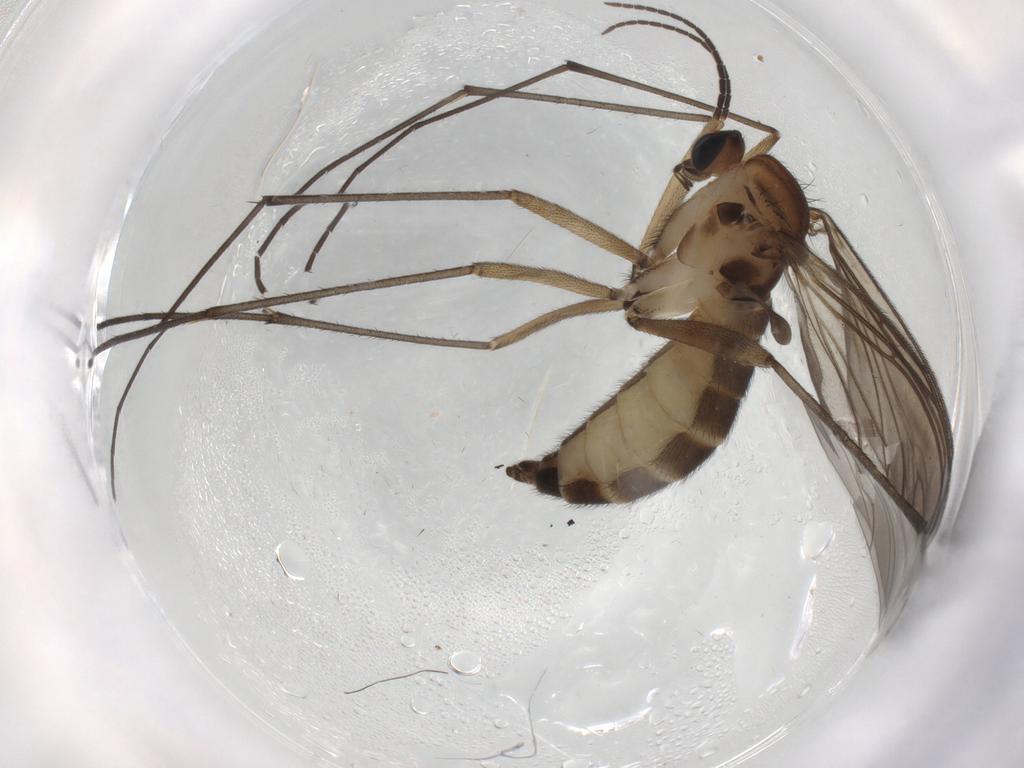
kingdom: Animalia
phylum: Arthropoda
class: Insecta
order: Diptera
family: Sciaridae
